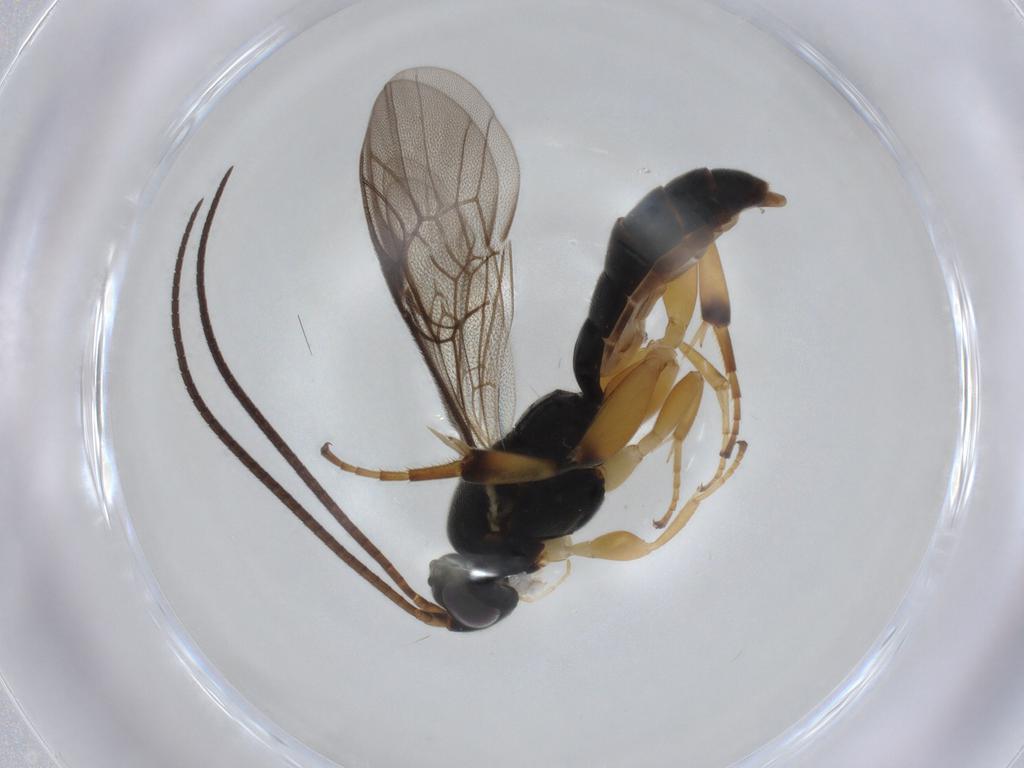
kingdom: Animalia
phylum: Arthropoda
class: Insecta
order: Hymenoptera
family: Ichneumonidae
